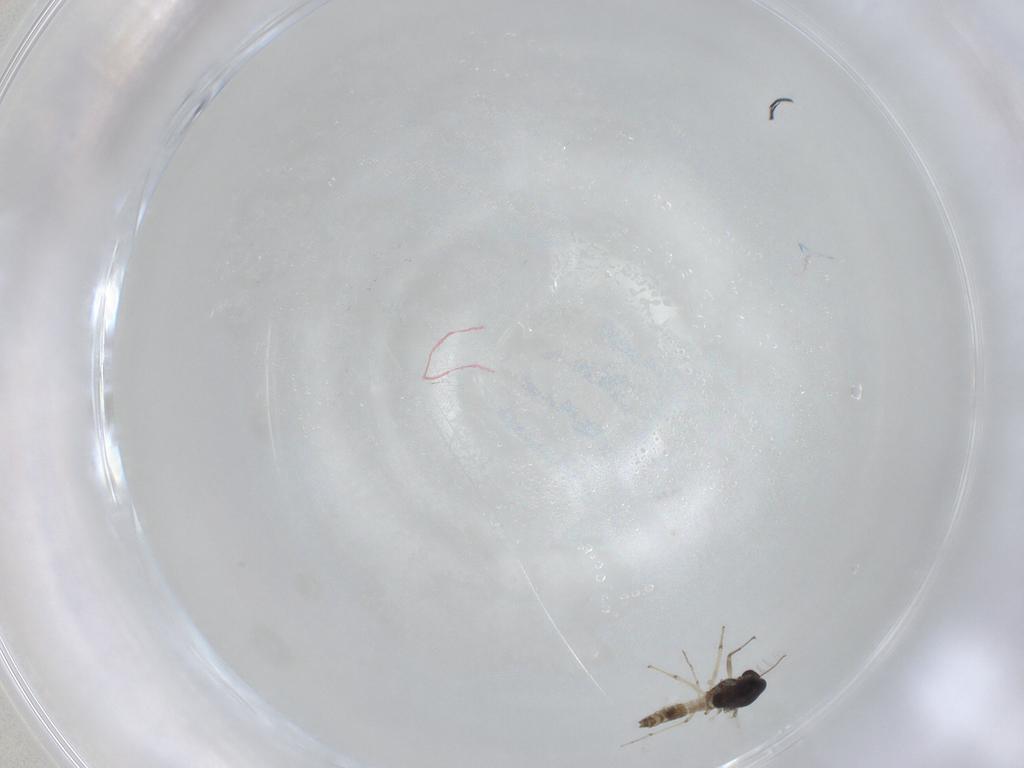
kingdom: Animalia
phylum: Arthropoda
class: Insecta
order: Diptera
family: Chironomidae
